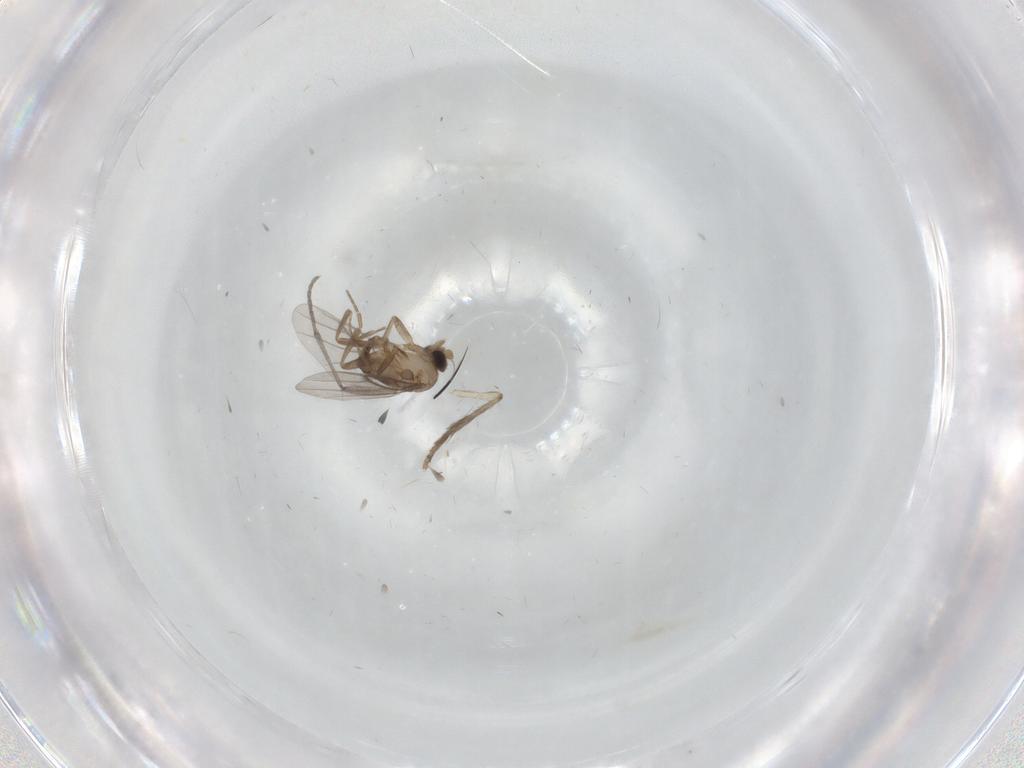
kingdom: Animalia
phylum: Arthropoda
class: Insecta
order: Diptera
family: Sciaridae
